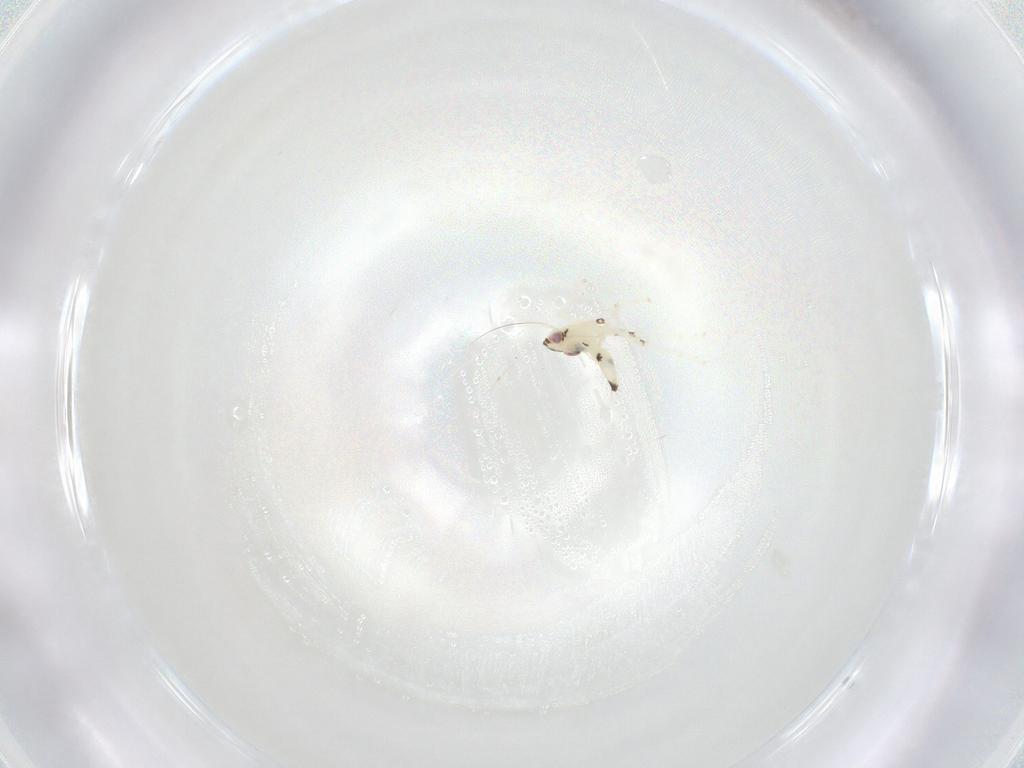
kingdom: Animalia
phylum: Arthropoda
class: Insecta
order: Hemiptera
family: Cicadellidae
